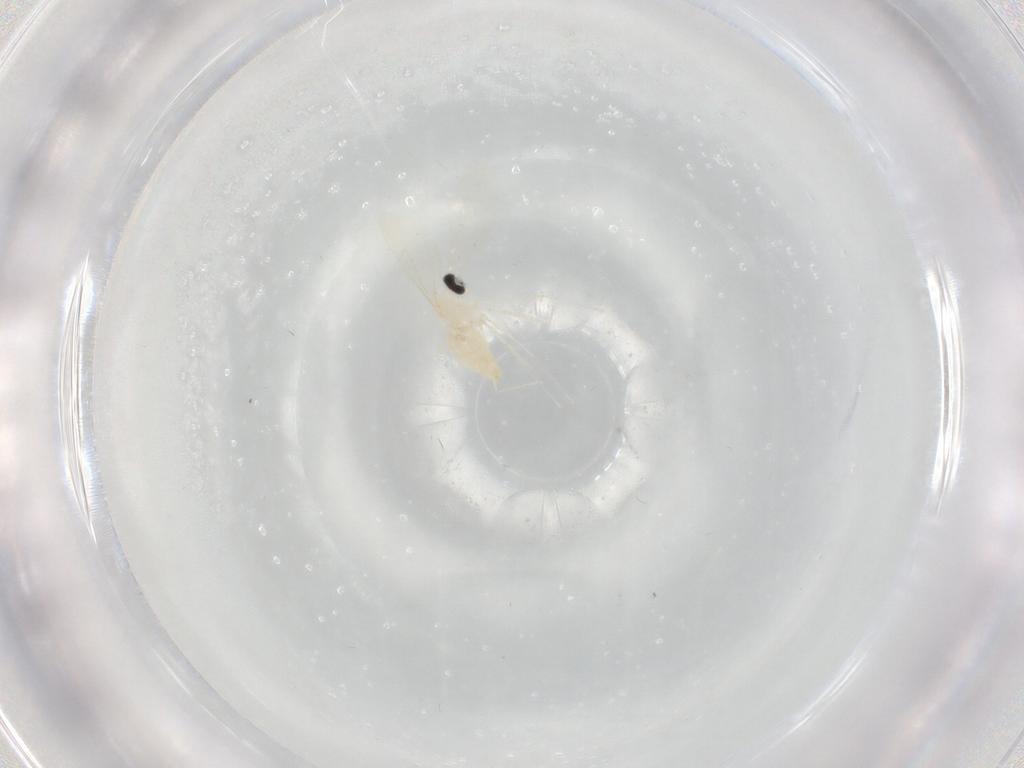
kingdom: Animalia
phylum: Arthropoda
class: Insecta
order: Diptera
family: Cecidomyiidae
